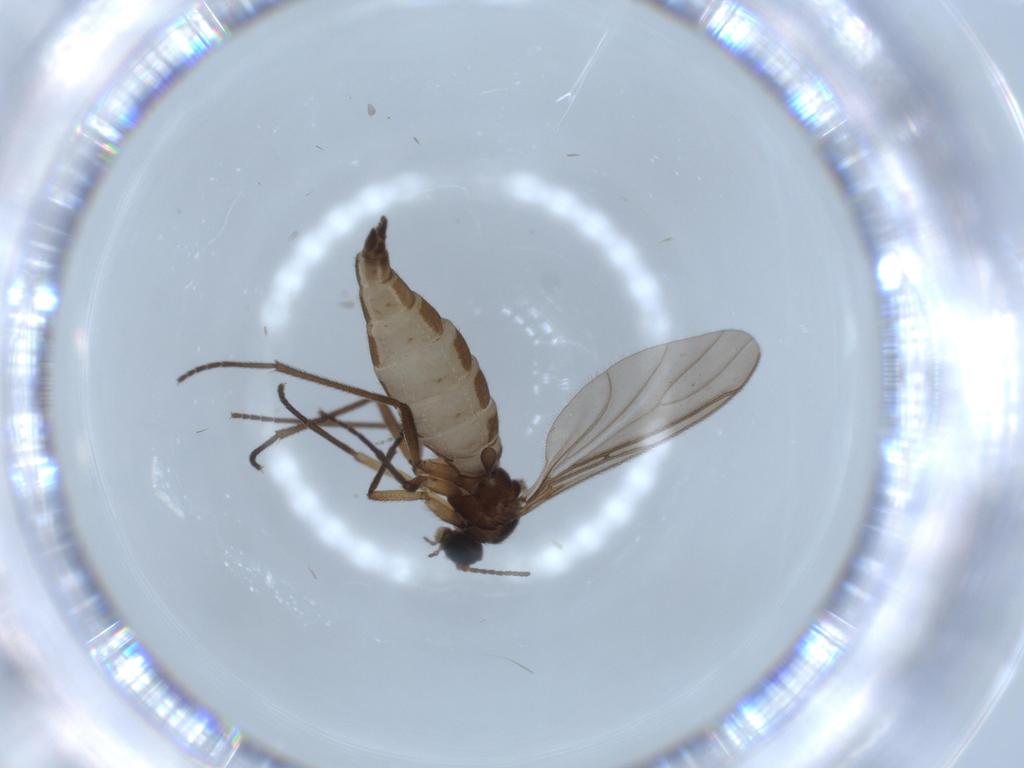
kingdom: Animalia
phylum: Arthropoda
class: Insecta
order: Diptera
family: Sciaridae
